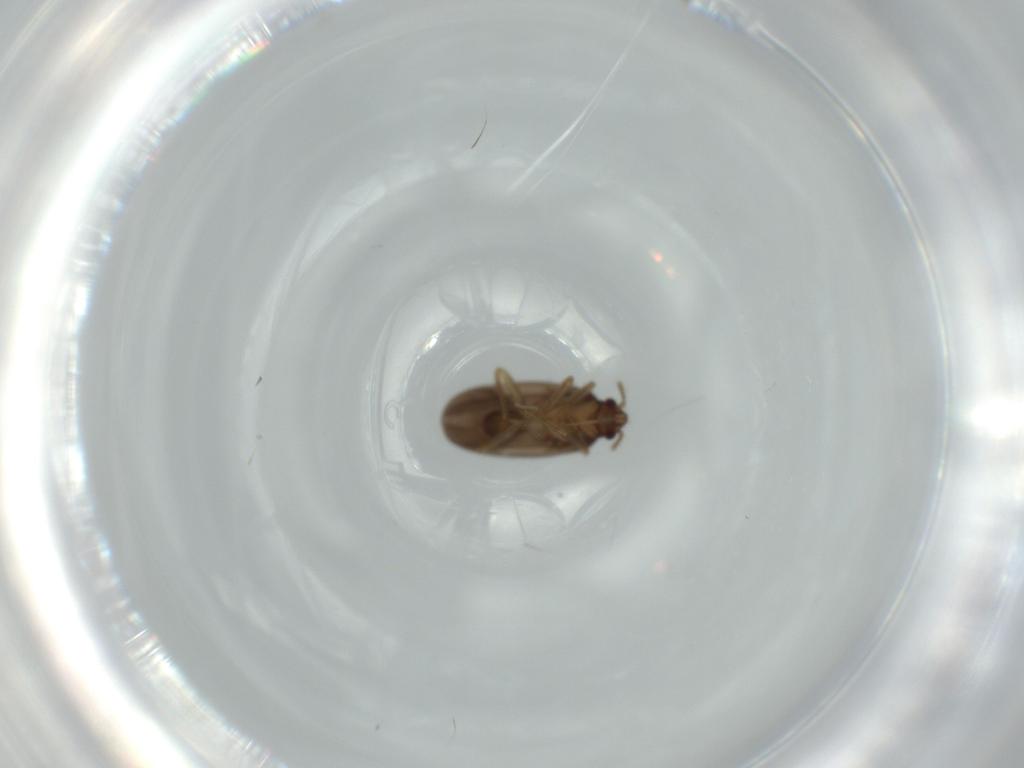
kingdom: Animalia
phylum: Arthropoda
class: Insecta
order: Hemiptera
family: Ceratocombidae
